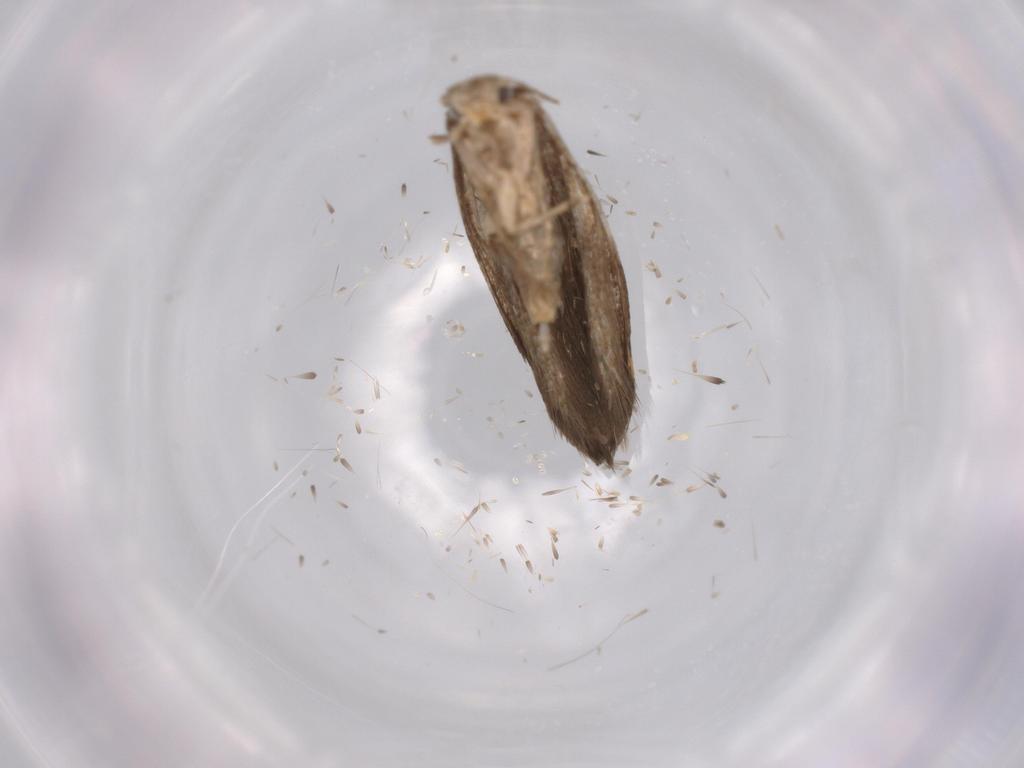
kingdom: Animalia
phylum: Arthropoda
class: Insecta
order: Lepidoptera
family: Tineidae
